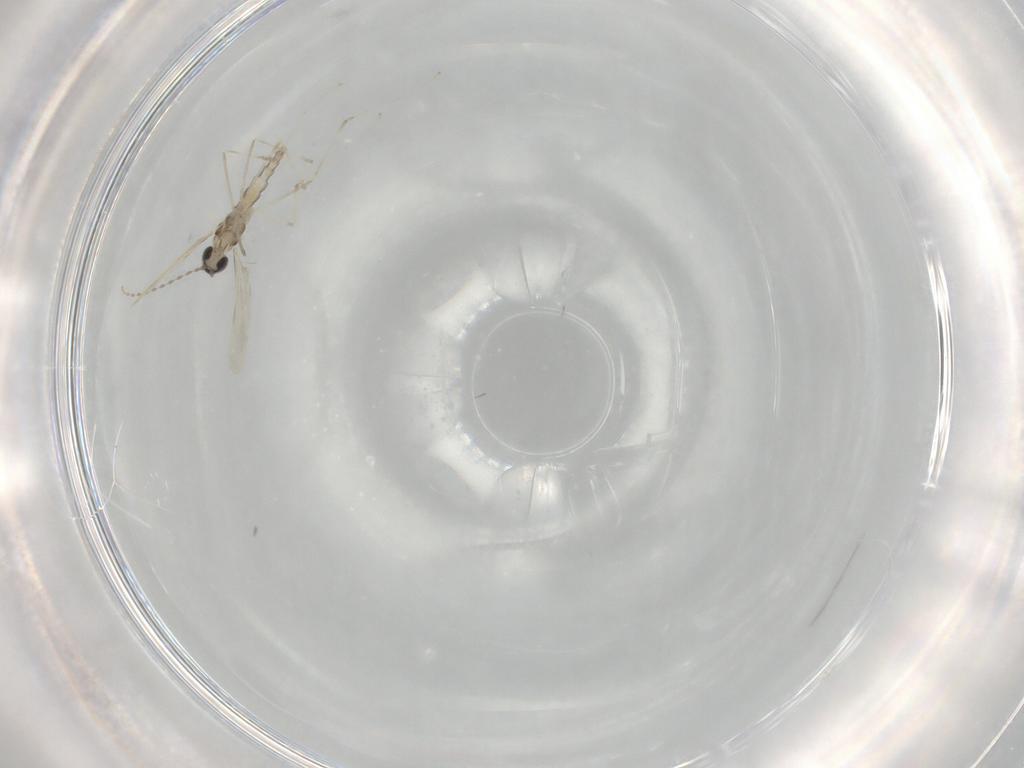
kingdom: Animalia
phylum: Arthropoda
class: Insecta
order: Diptera
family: Cecidomyiidae
